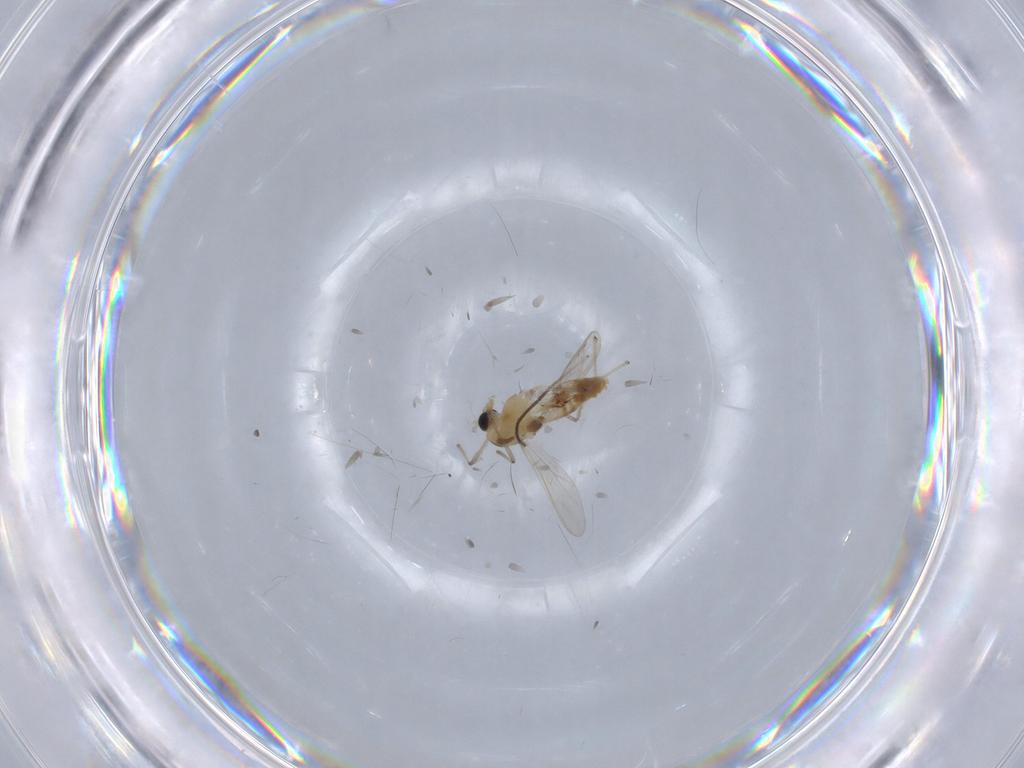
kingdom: Animalia
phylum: Arthropoda
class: Insecta
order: Diptera
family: Chironomidae
